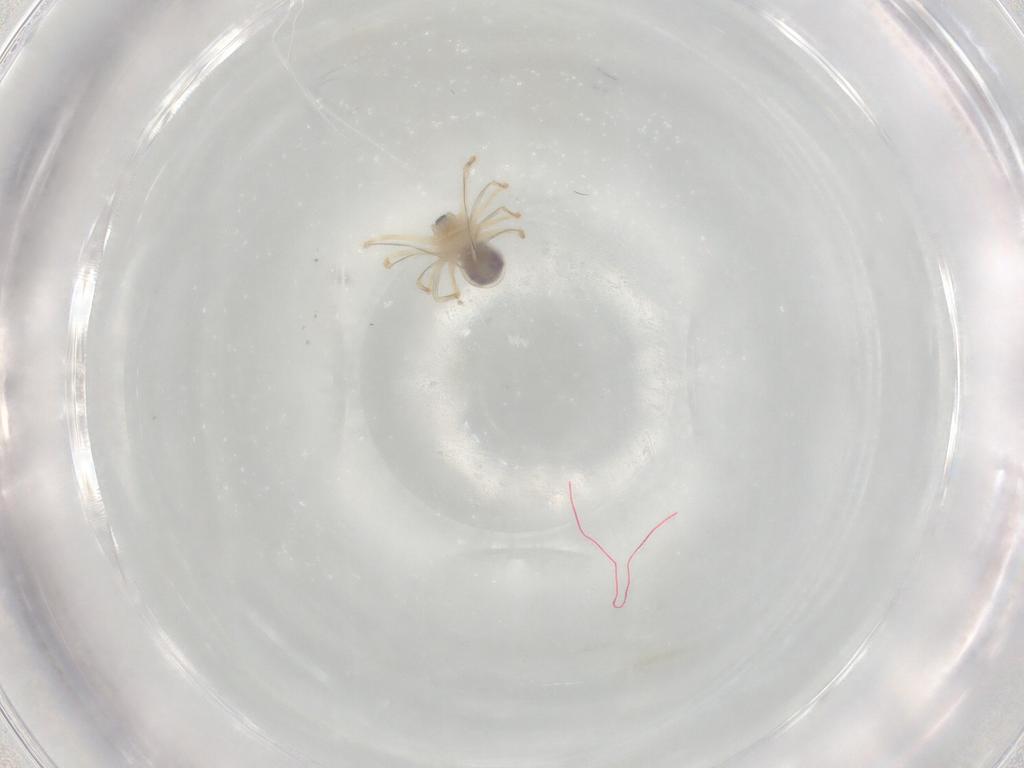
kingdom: Animalia
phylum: Arthropoda
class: Arachnida
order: Araneae
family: Pholcidae
